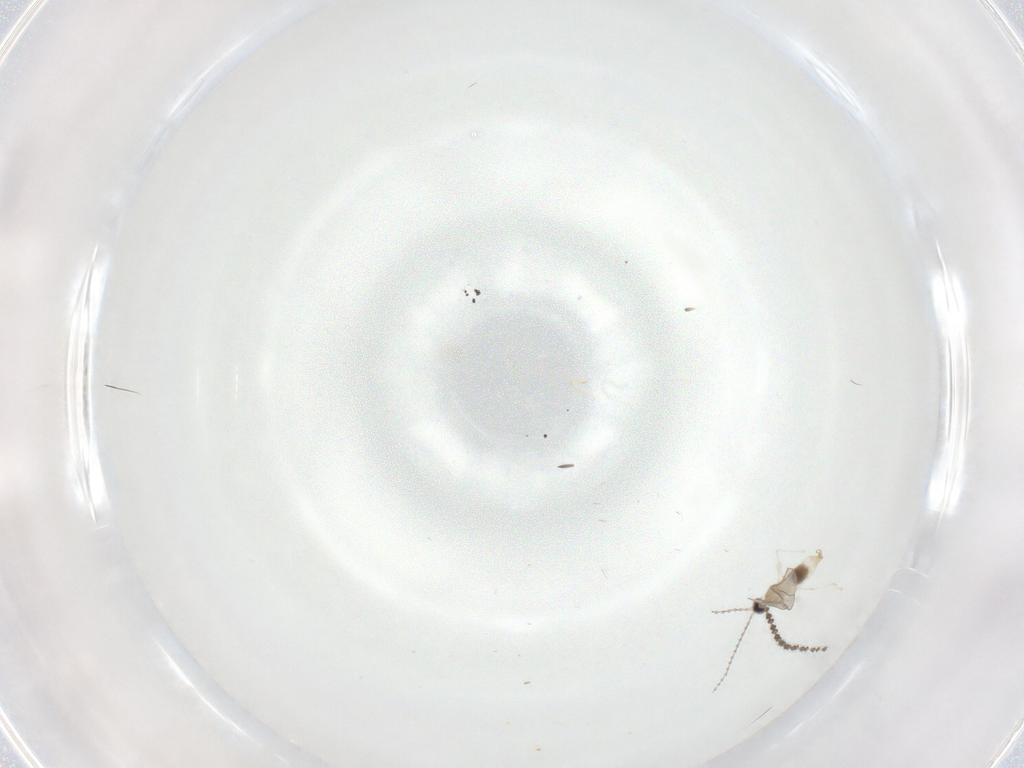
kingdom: Animalia
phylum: Arthropoda
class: Insecta
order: Diptera
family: Cecidomyiidae
